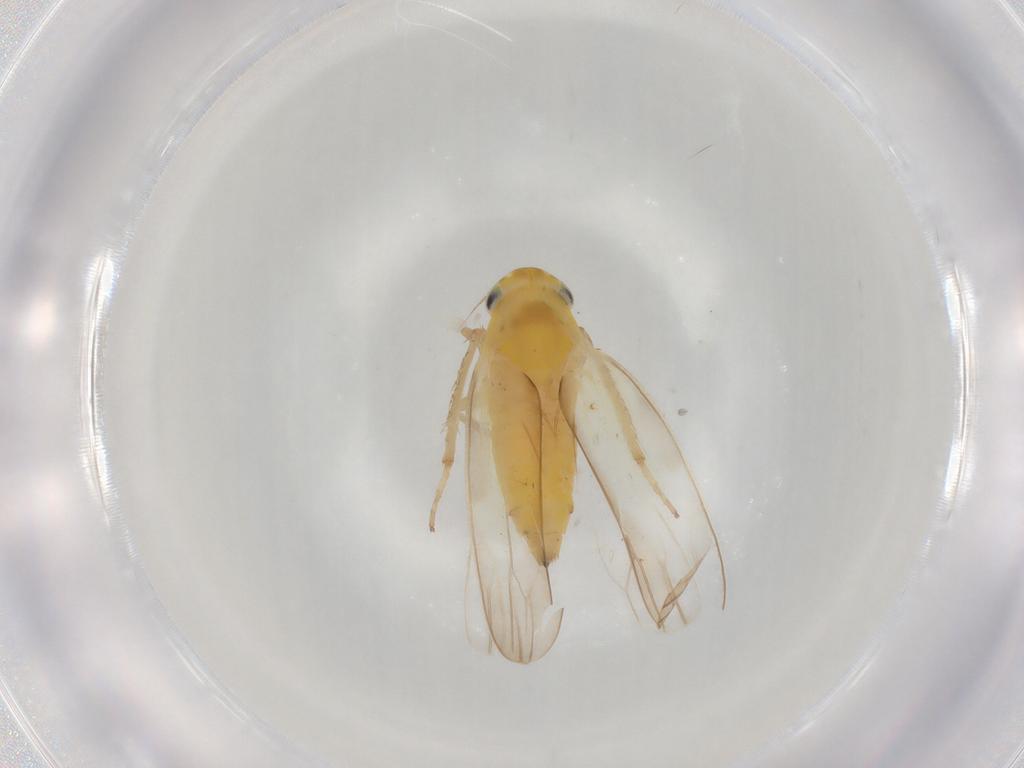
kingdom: Animalia
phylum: Arthropoda
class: Insecta
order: Hemiptera
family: Cicadellidae
